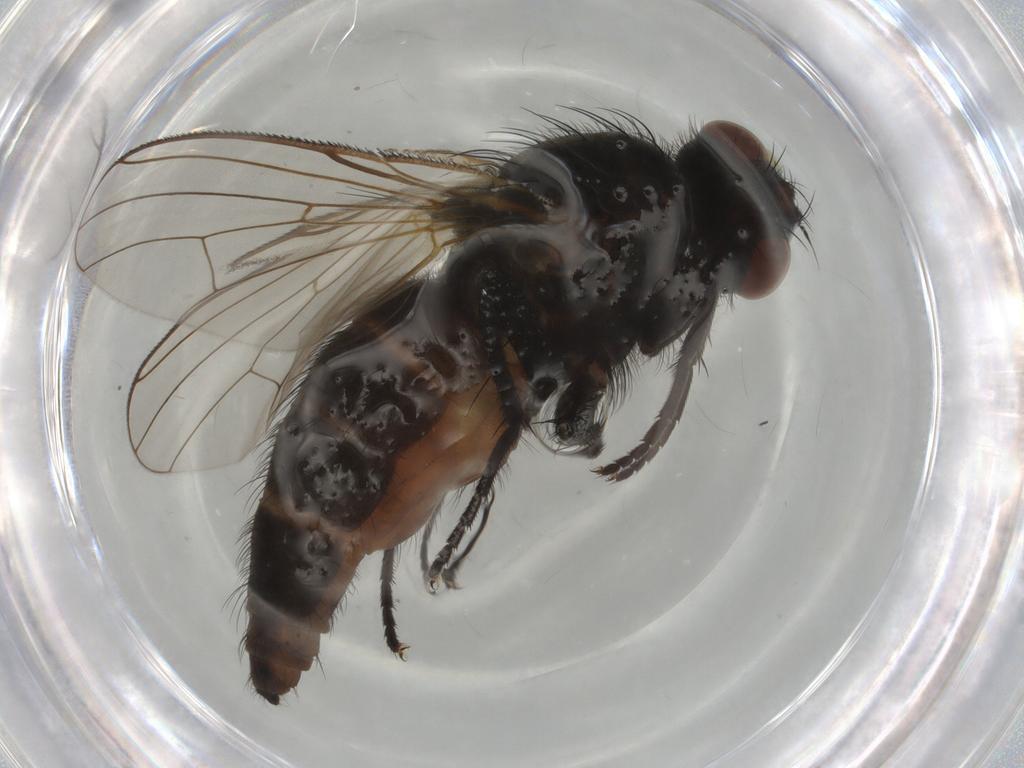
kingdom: Animalia
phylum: Arthropoda
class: Insecta
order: Diptera
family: Anthomyiidae
